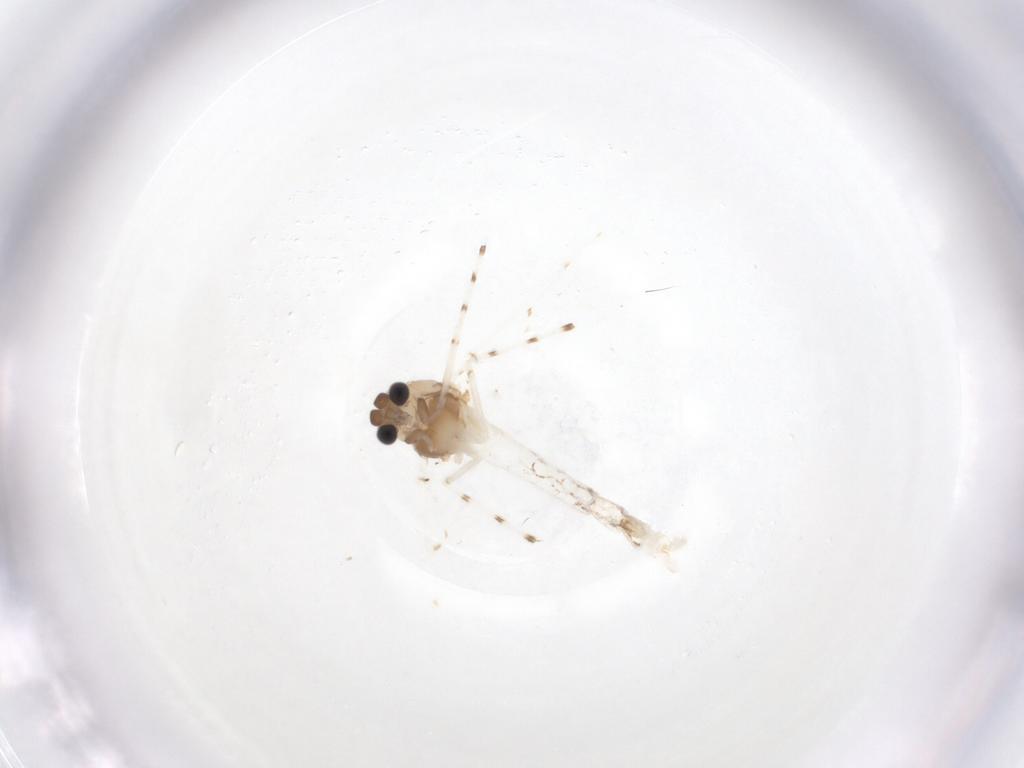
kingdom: Animalia
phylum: Arthropoda
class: Insecta
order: Diptera
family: Chironomidae
